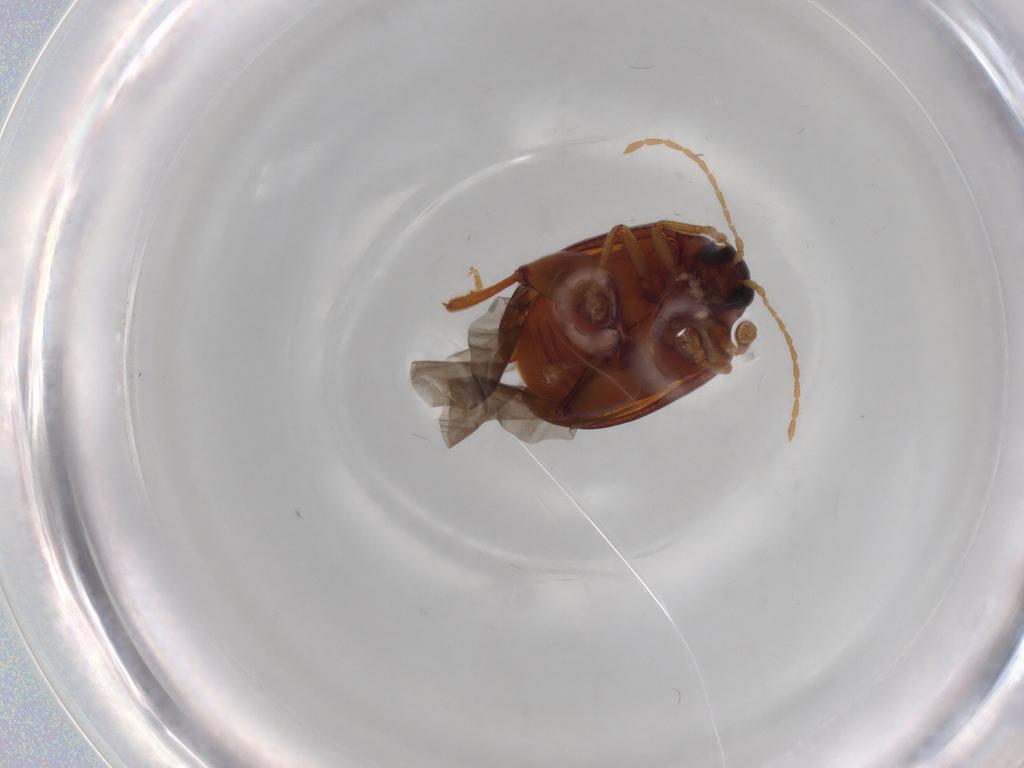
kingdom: Animalia
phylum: Arthropoda
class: Insecta
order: Coleoptera
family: Chrysomelidae
